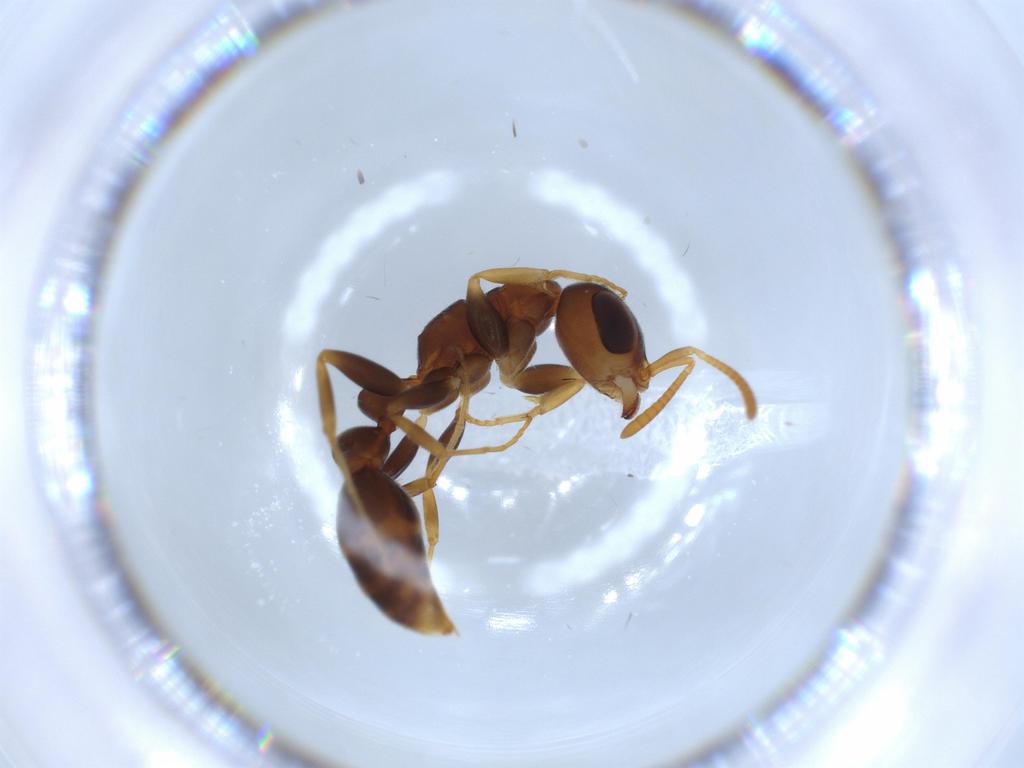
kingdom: Animalia
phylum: Arthropoda
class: Insecta
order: Hymenoptera
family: Formicidae
